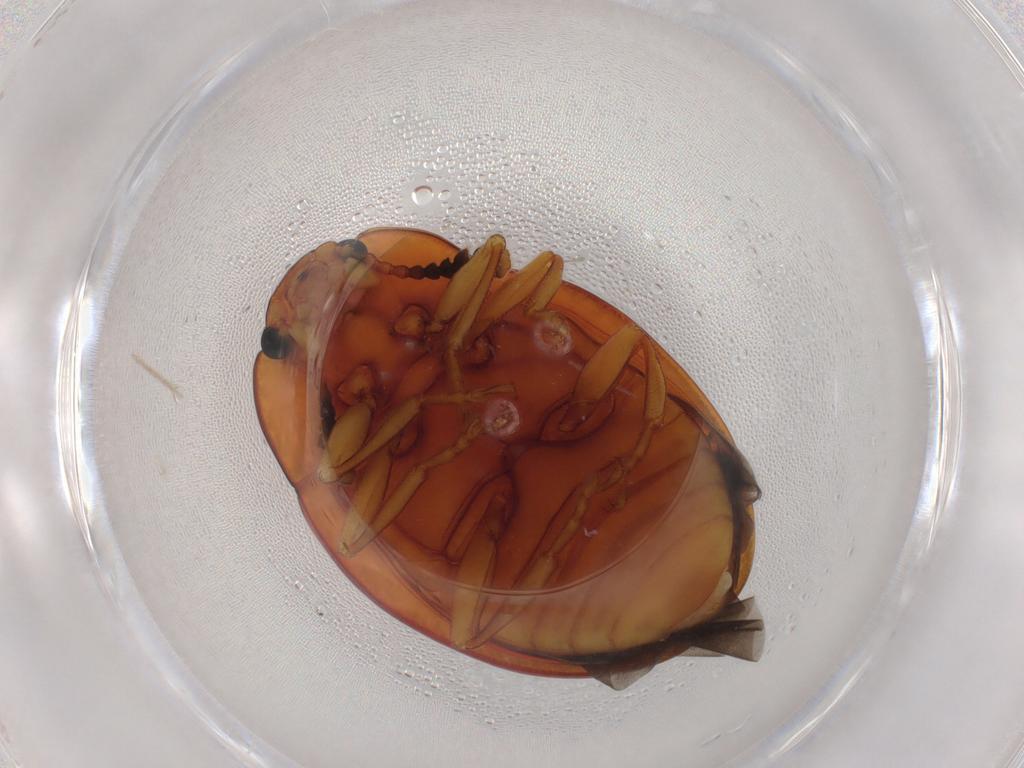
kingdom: Animalia
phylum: Arthropoda
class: Insecta
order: Coleoptera
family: Erotylidae
